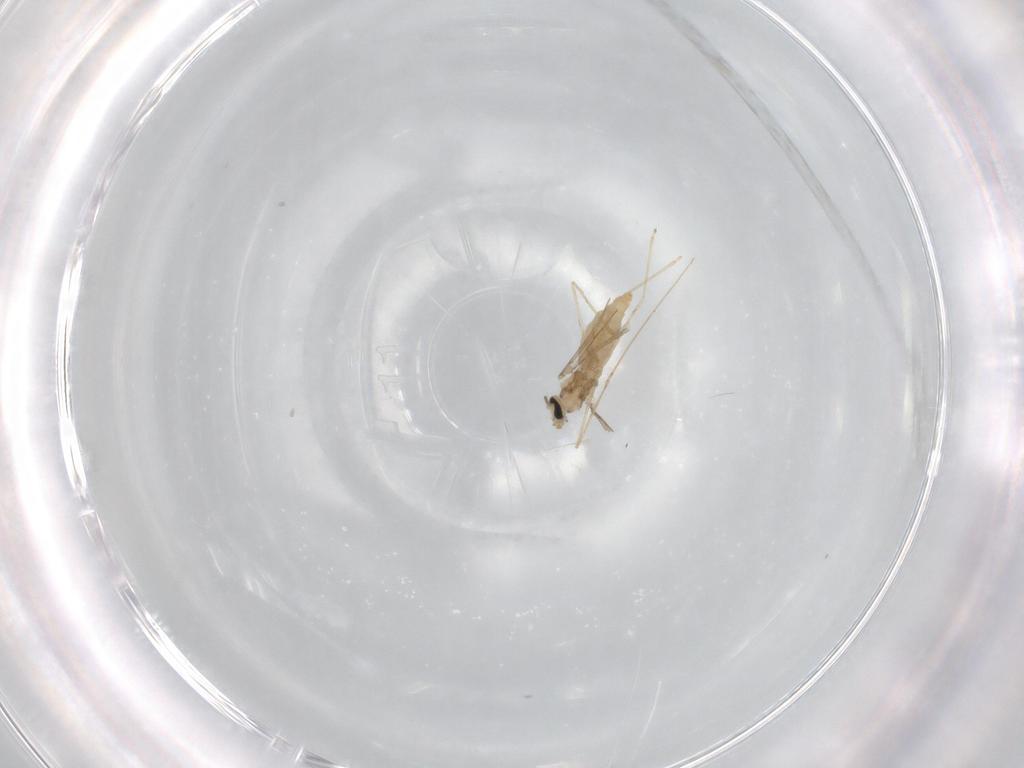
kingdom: Animalia
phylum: Arthropoda
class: Insecta
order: Diptera
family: Cecidomyiidae
